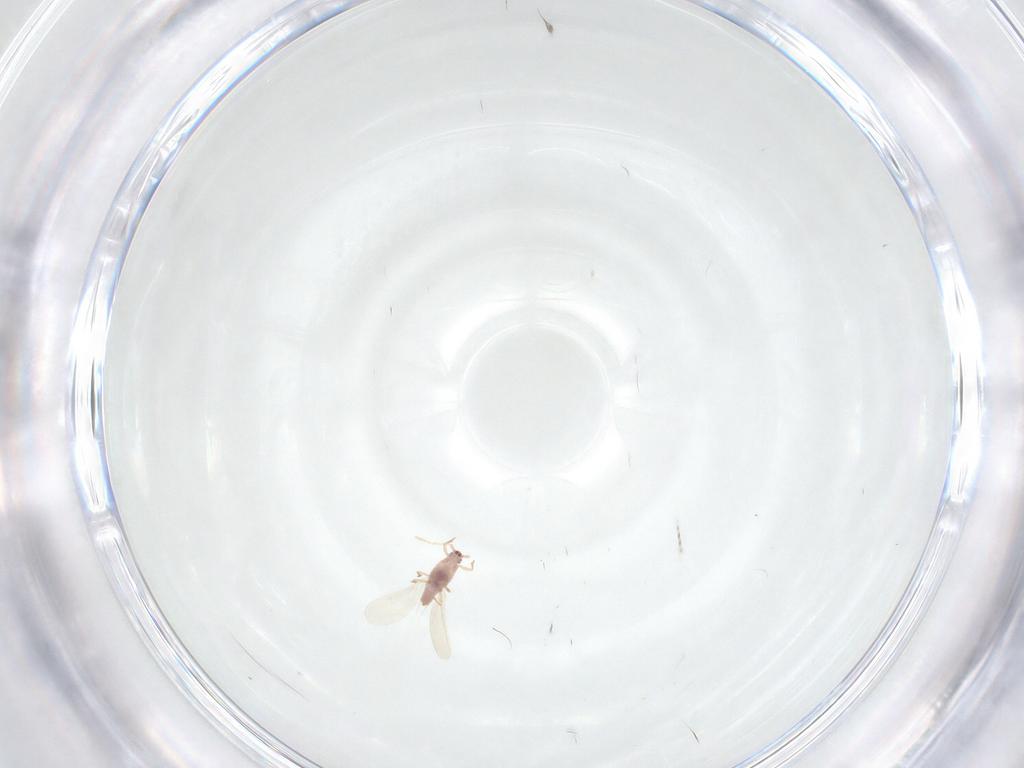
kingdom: Animalia
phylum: Arthropoda
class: Insecta
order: Hemiptera
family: Pseudococcidae
